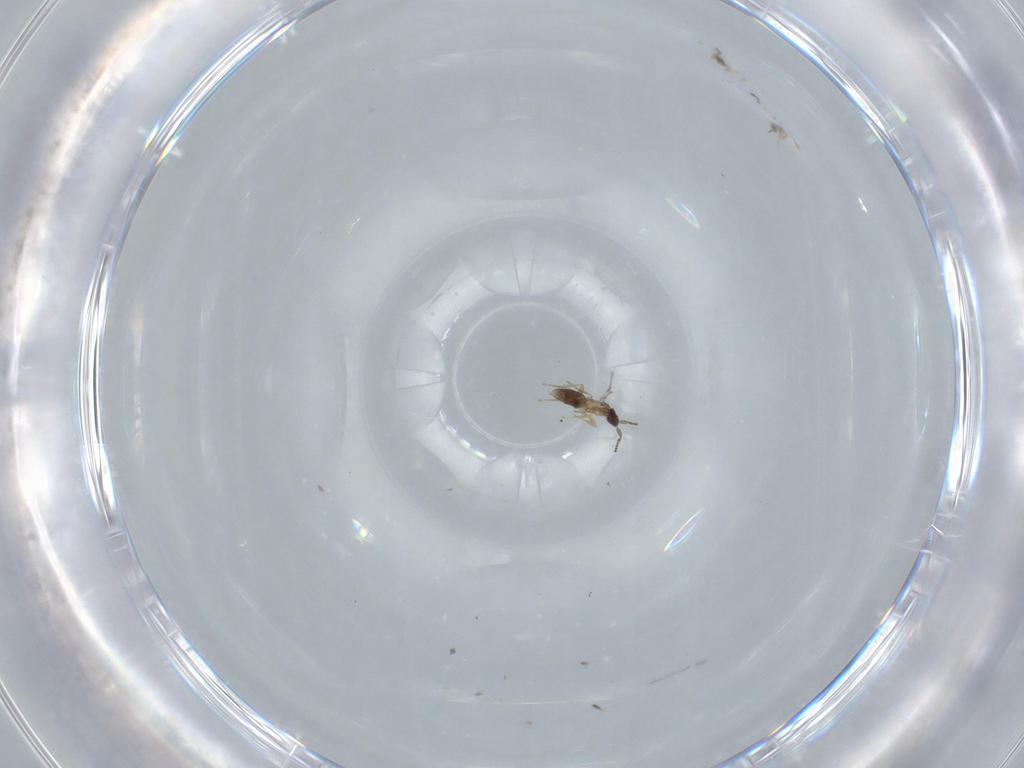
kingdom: Animalia
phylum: Arthropoda
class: Insecta
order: Hymenoptera
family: Mymaridae
